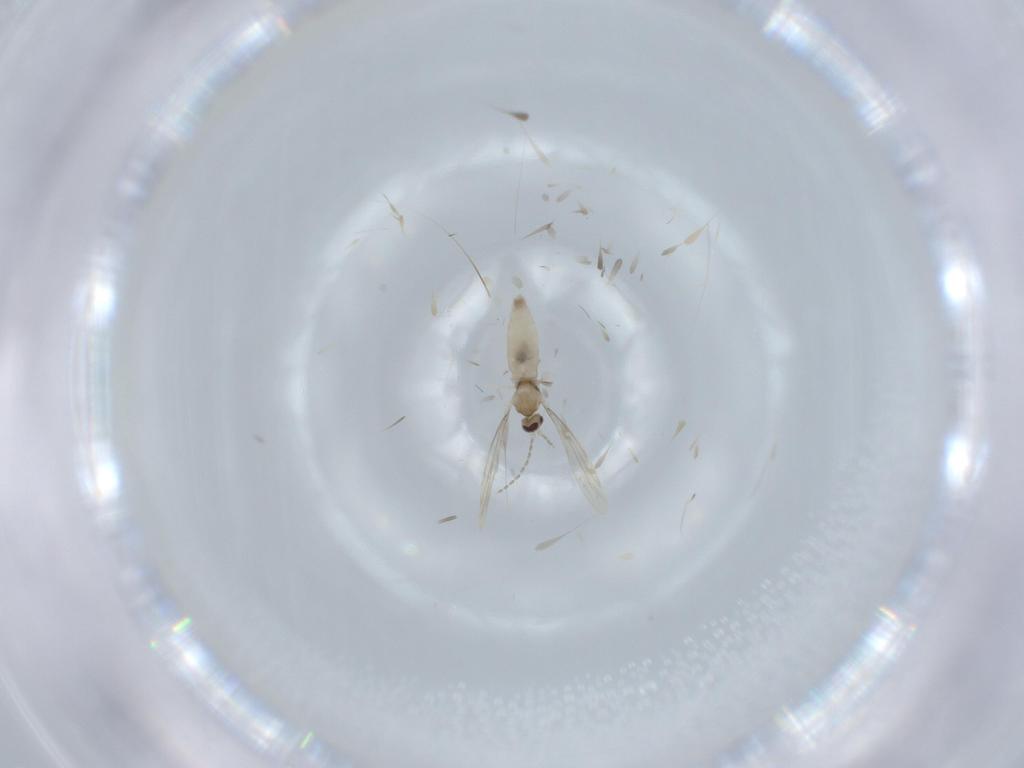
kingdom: Animalia
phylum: Arthropoda
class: Insecta
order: Diptera
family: Cecidomyiidae
